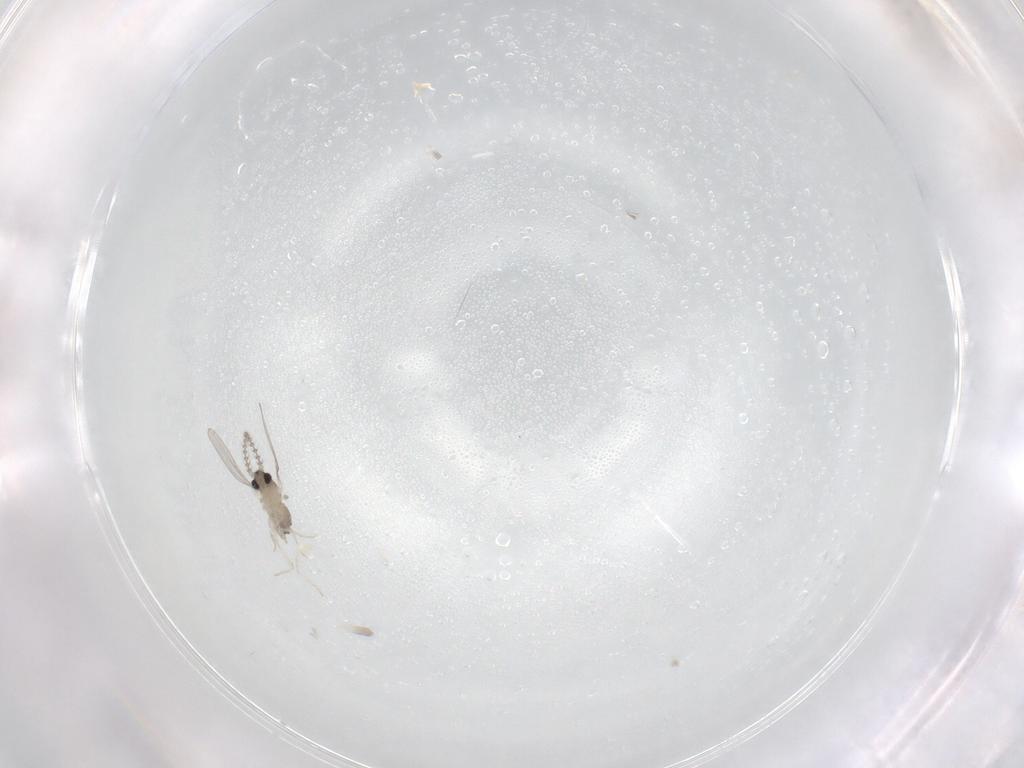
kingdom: Animalia
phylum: Arthropoda
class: Insecta
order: Diptera
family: Cecidomyiidae
